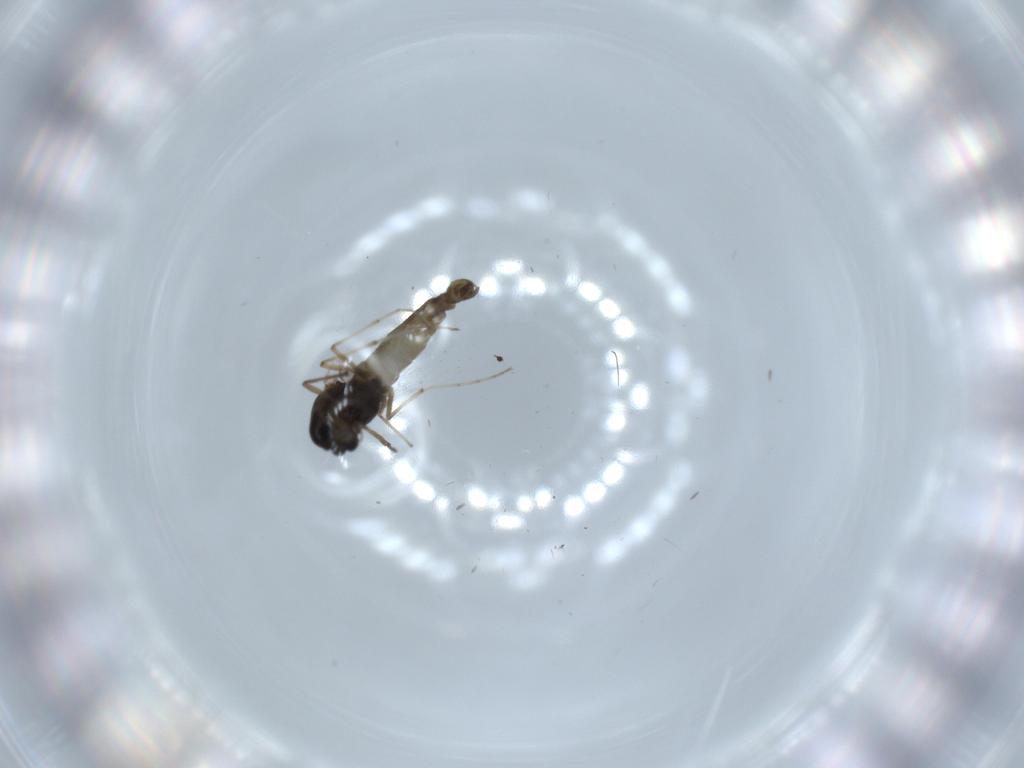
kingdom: Animalia
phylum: Arthropoda
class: Insecta
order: Diptera
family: Chironomidae
